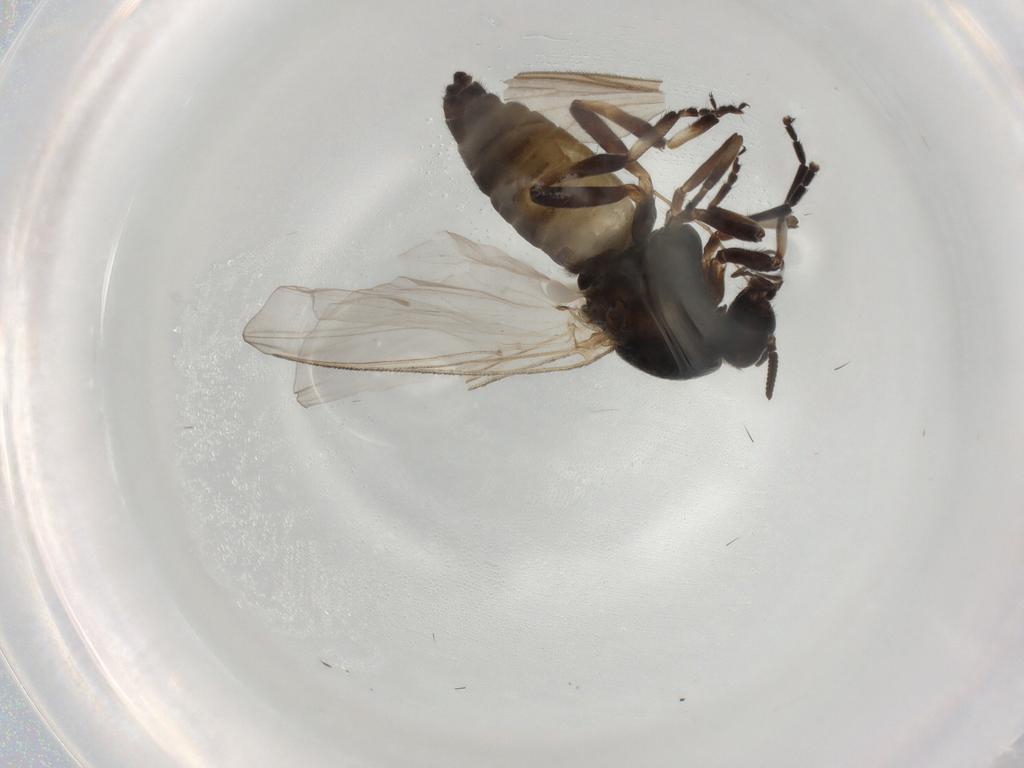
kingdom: Animalia
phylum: Arthropoda
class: Insecta
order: Diptera
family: Simuliidae
